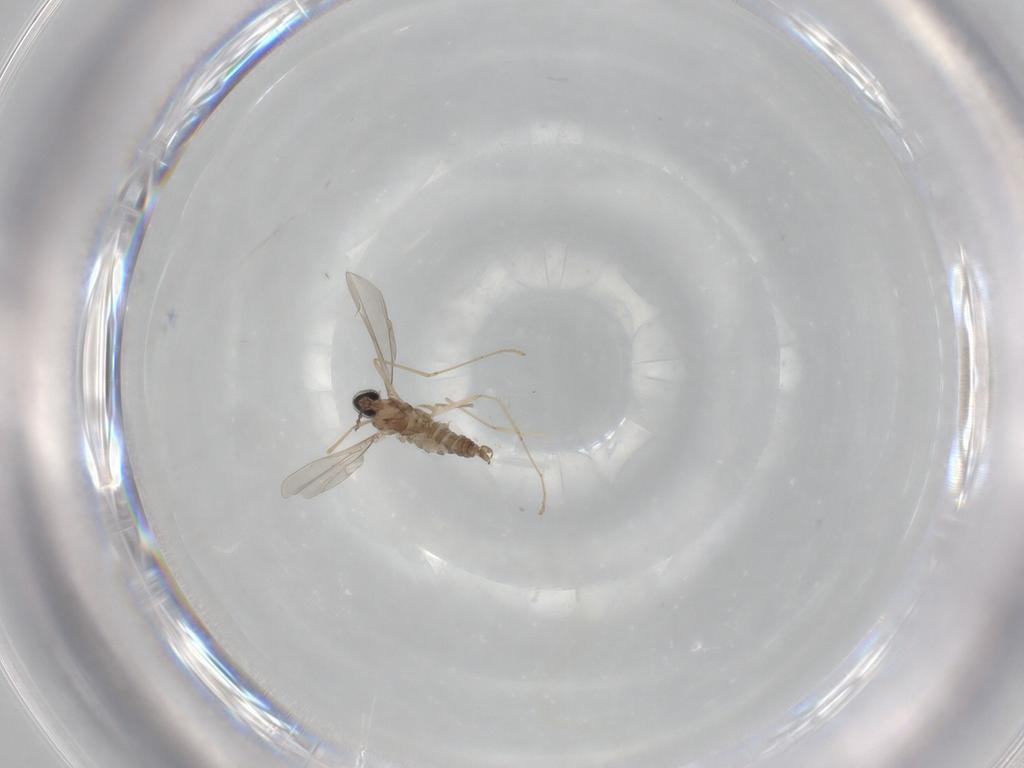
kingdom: Animalia
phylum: Arthropoda
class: Insecta
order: Diptera
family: Cecidomyiidae
